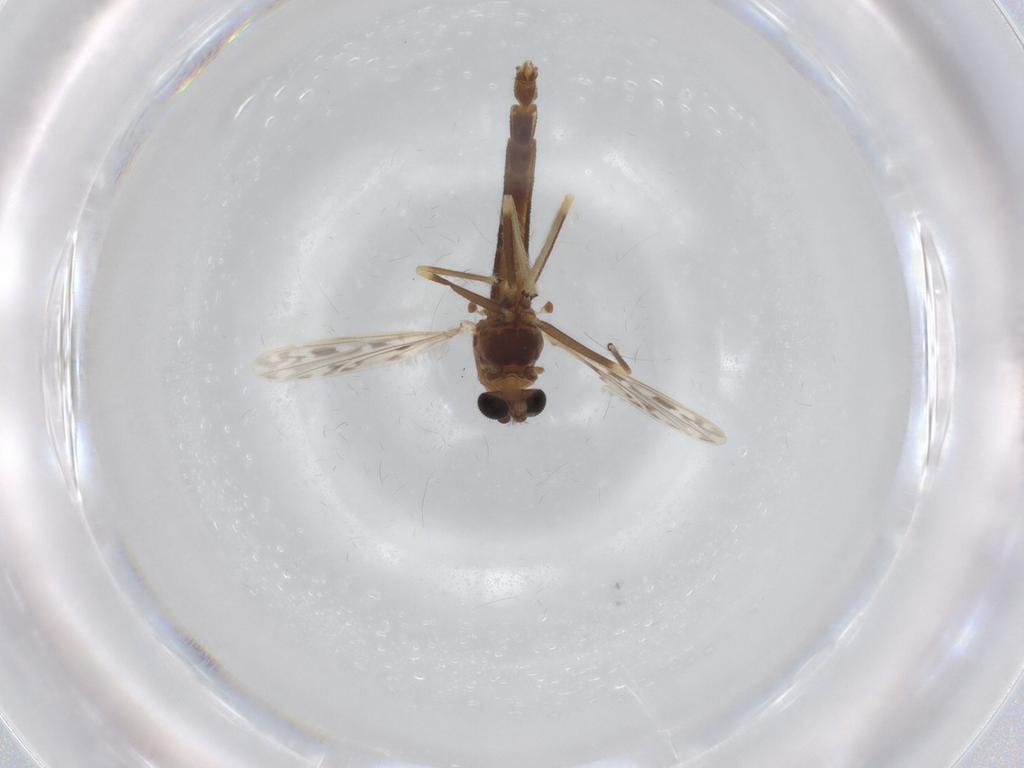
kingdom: Animalia
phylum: Arthropoda
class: Insecta
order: Diptera
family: Chironomidae
